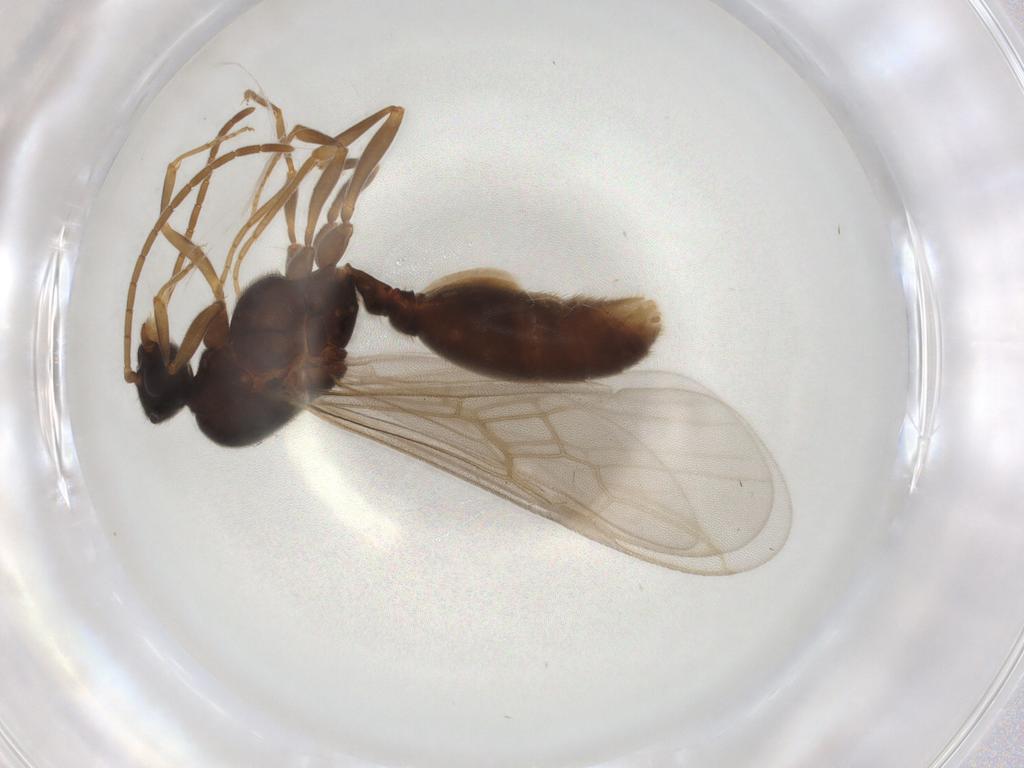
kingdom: Animalia
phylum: Arthropoda
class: Insecta
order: Hymenoptera
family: Formicidae
